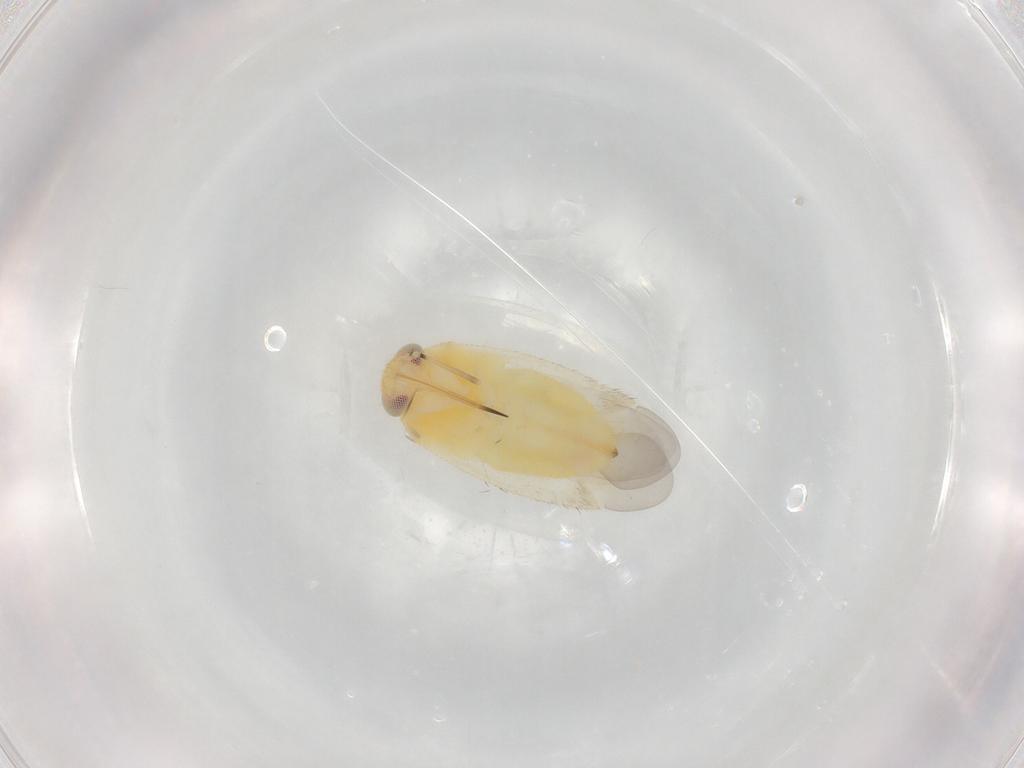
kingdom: Animalia
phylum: Arthropoda
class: Insecta
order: Hemiptera
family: Miridae
